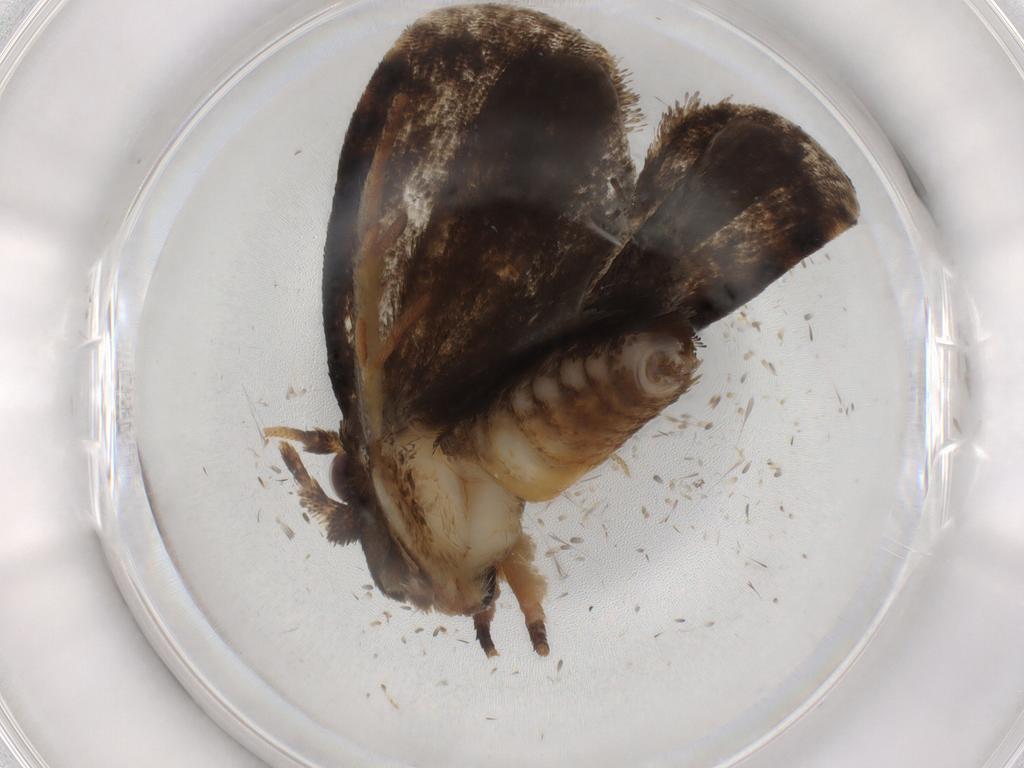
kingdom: Animalia
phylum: Arthropoda
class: Insecta
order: Lepidoptera
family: Tineidae
